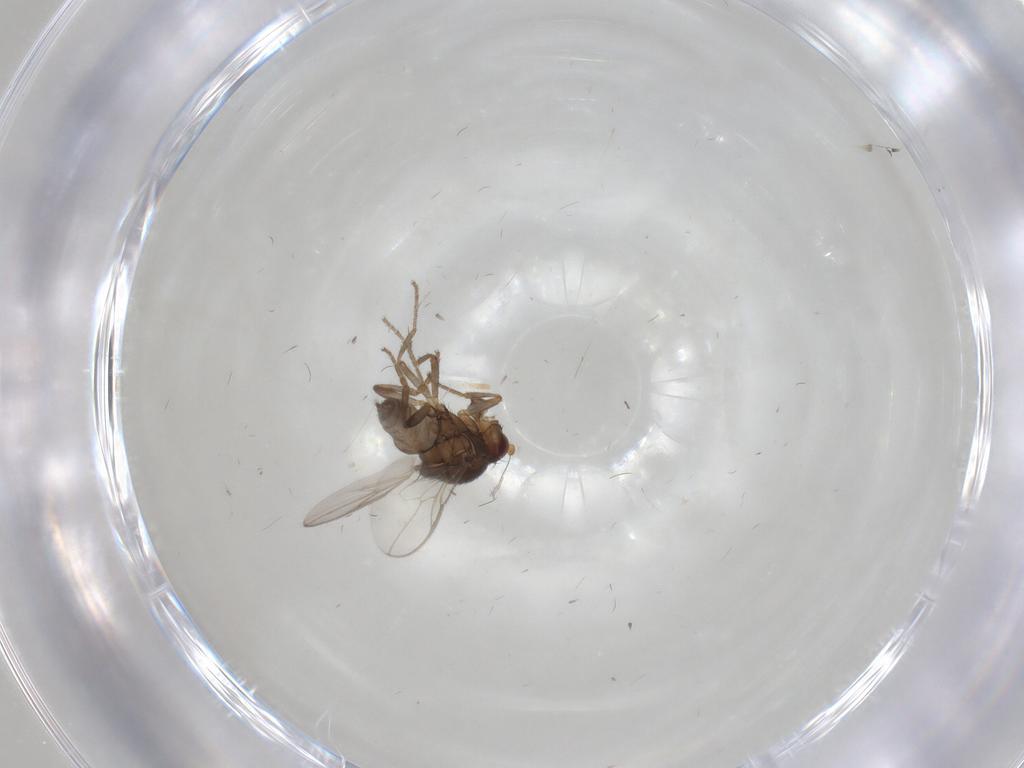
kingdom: Animalia
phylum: Arthropoda
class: Insecta
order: Diptera
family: Sphaeroceridae
